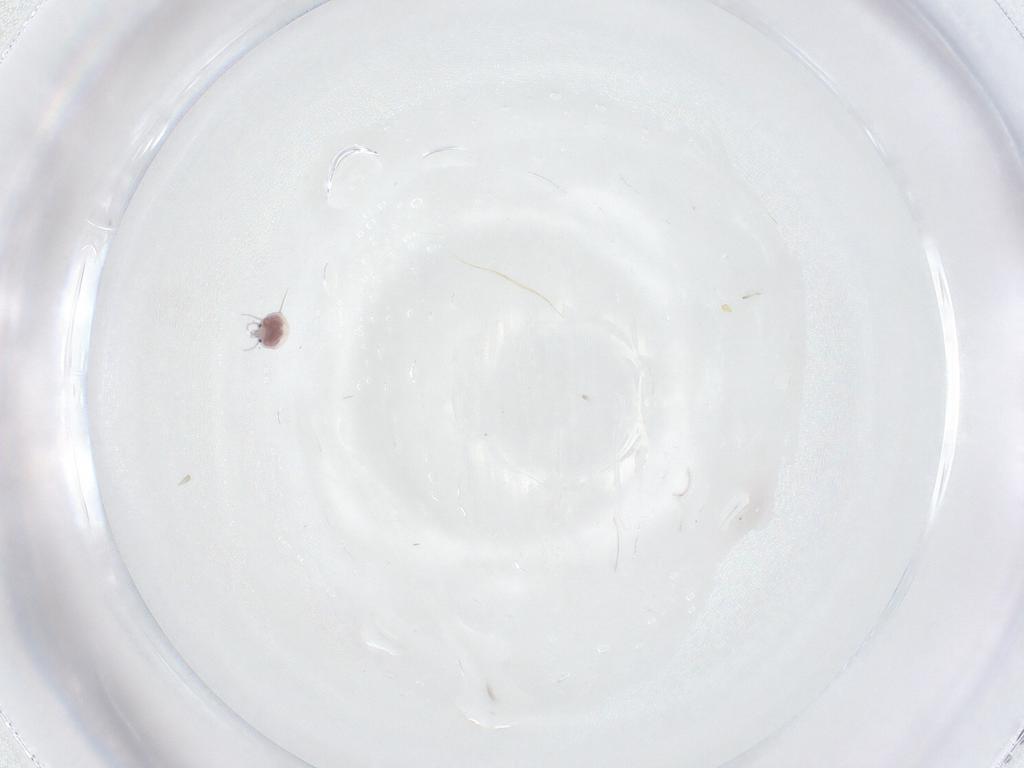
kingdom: Animalia
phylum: Arthropoda
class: Arachnida
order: Trombidiformes
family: Pionidae
